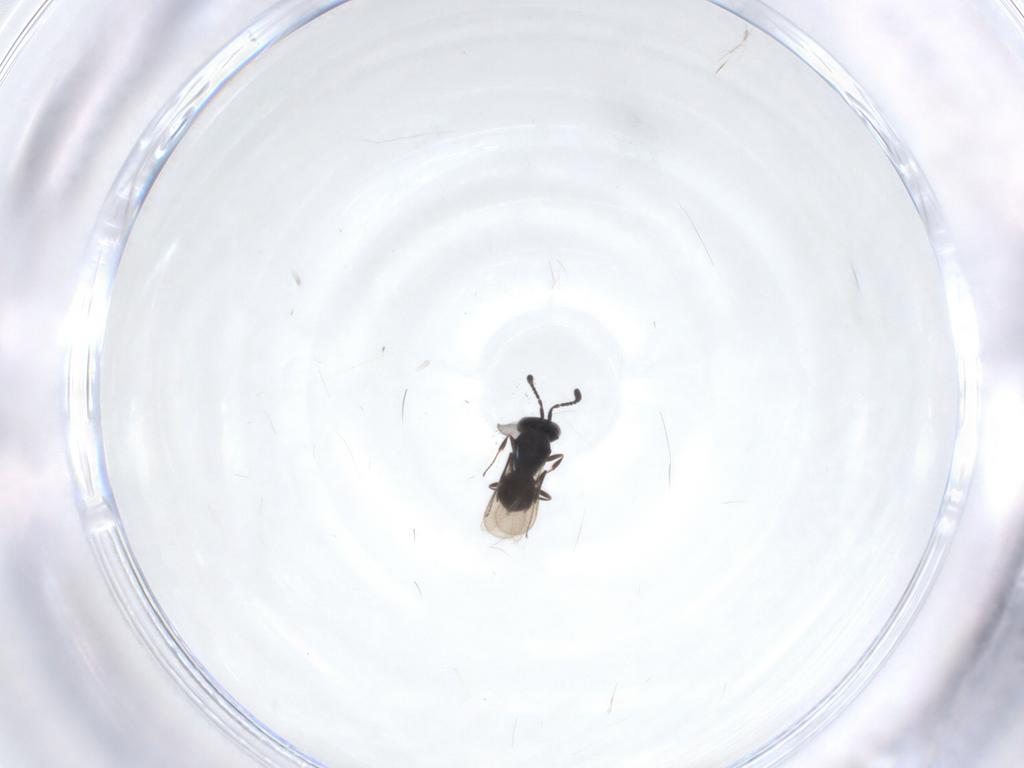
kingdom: Animalia
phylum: Arthropoda
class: Insecta
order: Hymenoptera
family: Scelionidae
